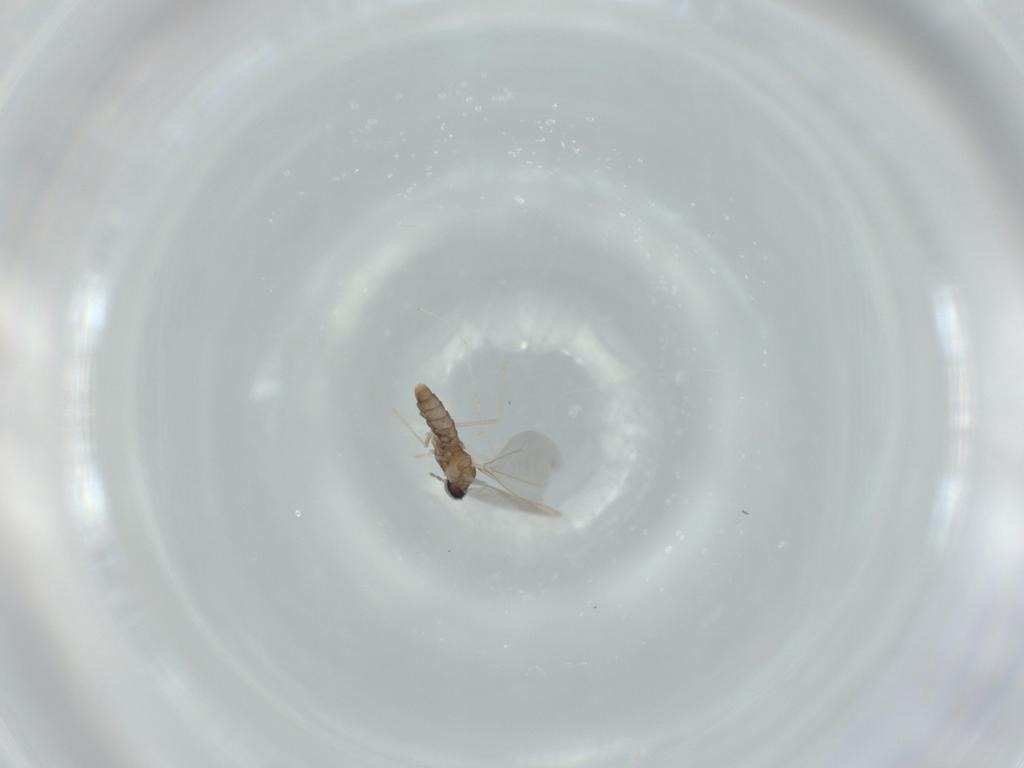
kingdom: Animalia
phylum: Arthropoda
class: Insecta
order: Diptera
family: Cecidomyiidae
